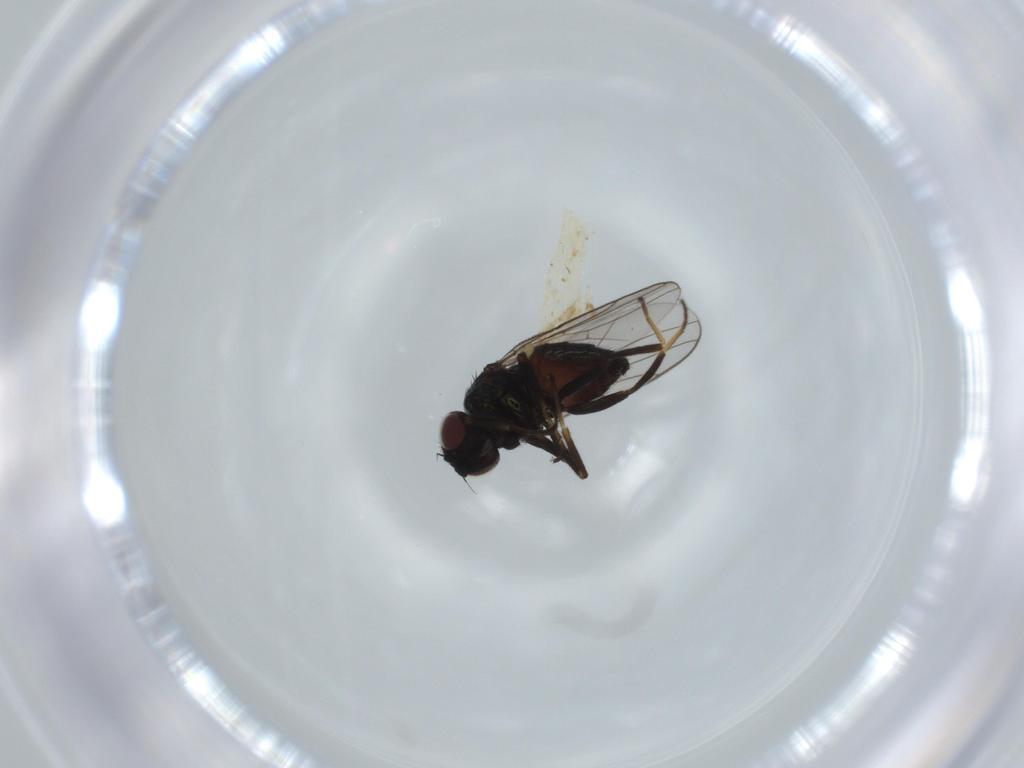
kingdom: Animalia
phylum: Arthropoda
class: Insecta
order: Diptera
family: Chloropidae
